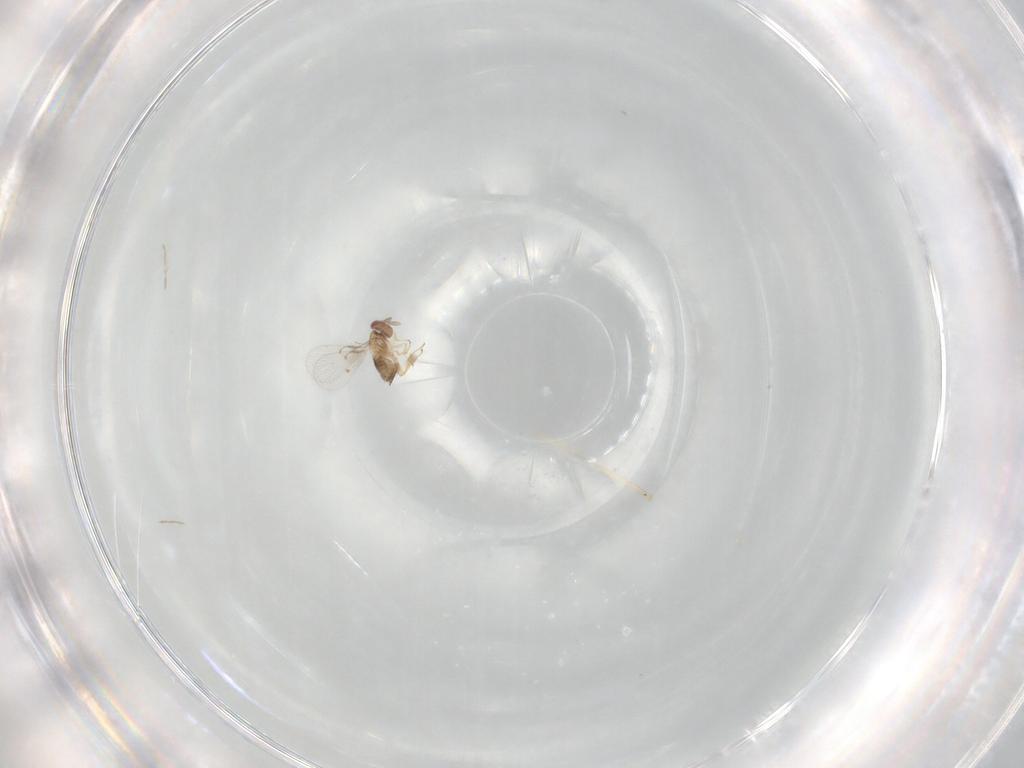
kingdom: Animalia
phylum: Arthropoda
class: Insecta
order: Hymenoptera
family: Trichogrammatidae
